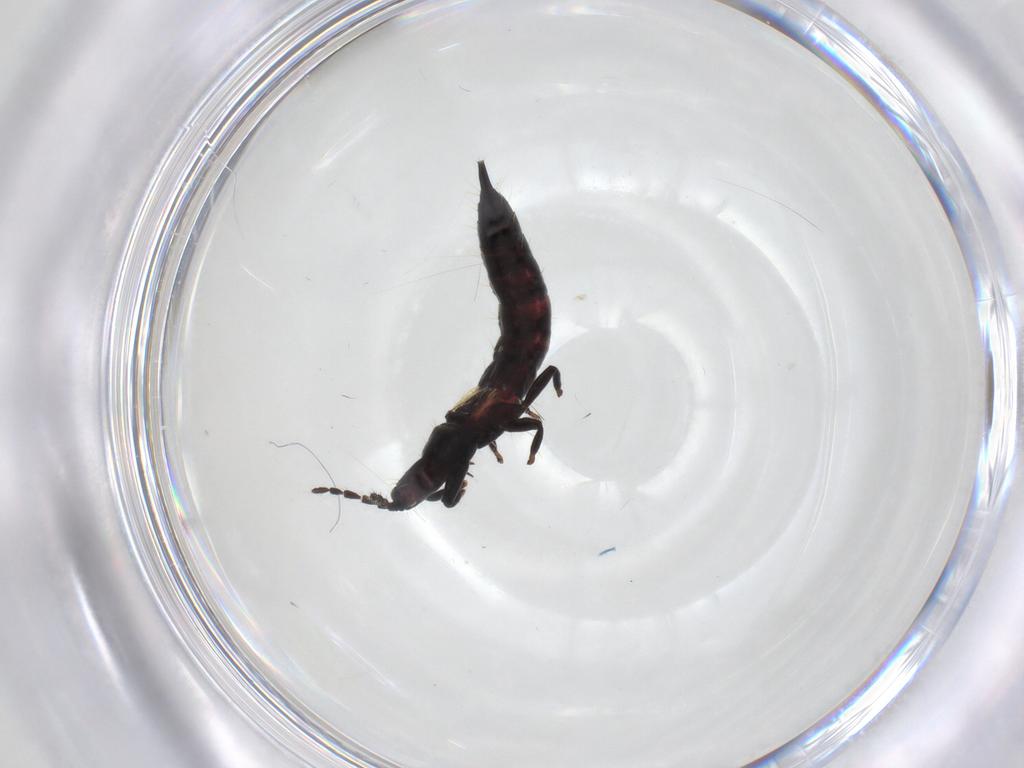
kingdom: Animalia
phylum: Arthropoda
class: Insecta
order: Thysanoptera
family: Phlaeothripidae
